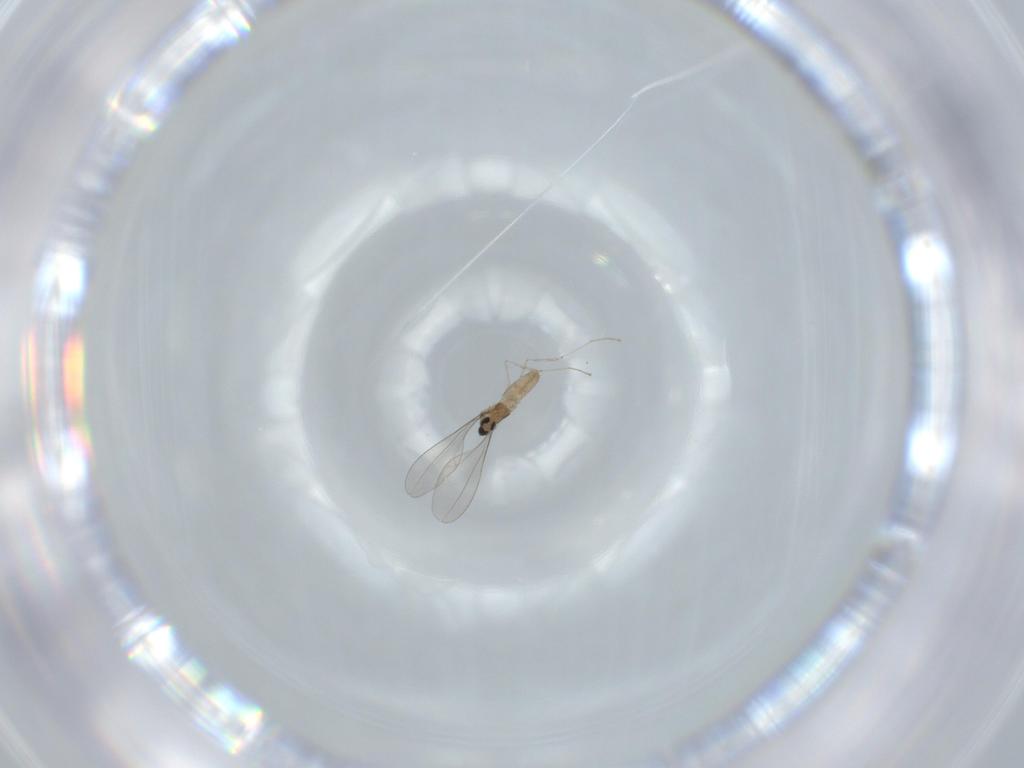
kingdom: Animalia
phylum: Arthropoda
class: Insecta
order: Diptera
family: Cecidomyiidae
